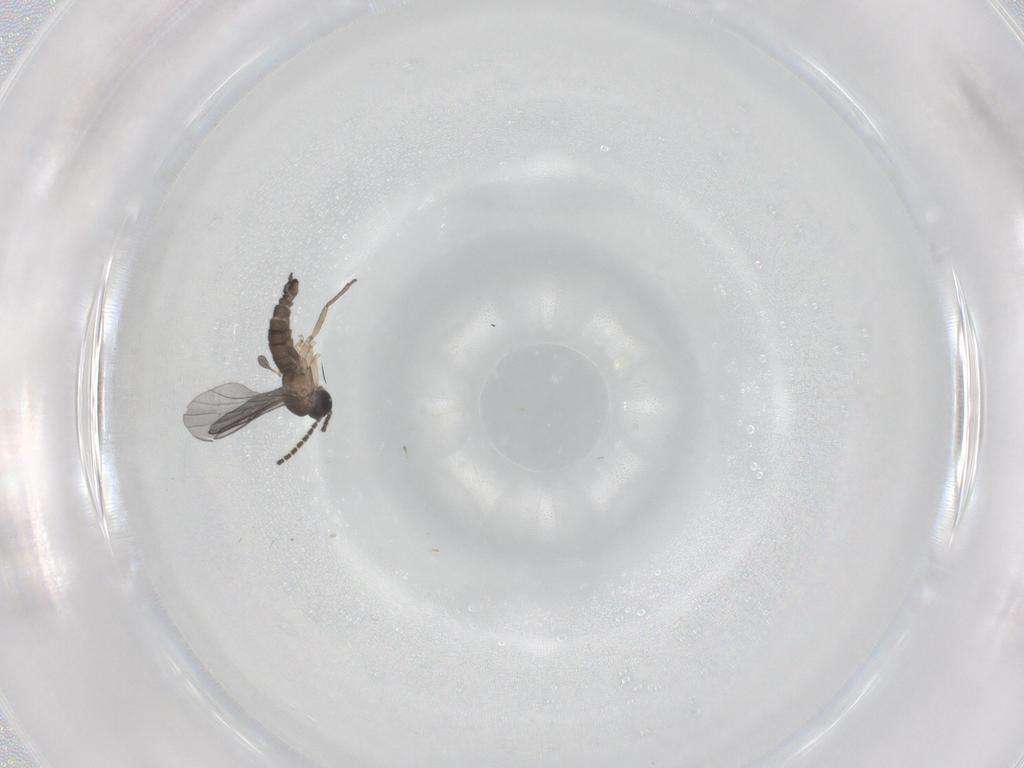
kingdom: Animalia
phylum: Arthropoda
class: Insecta
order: Diptera
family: Sciaridae
